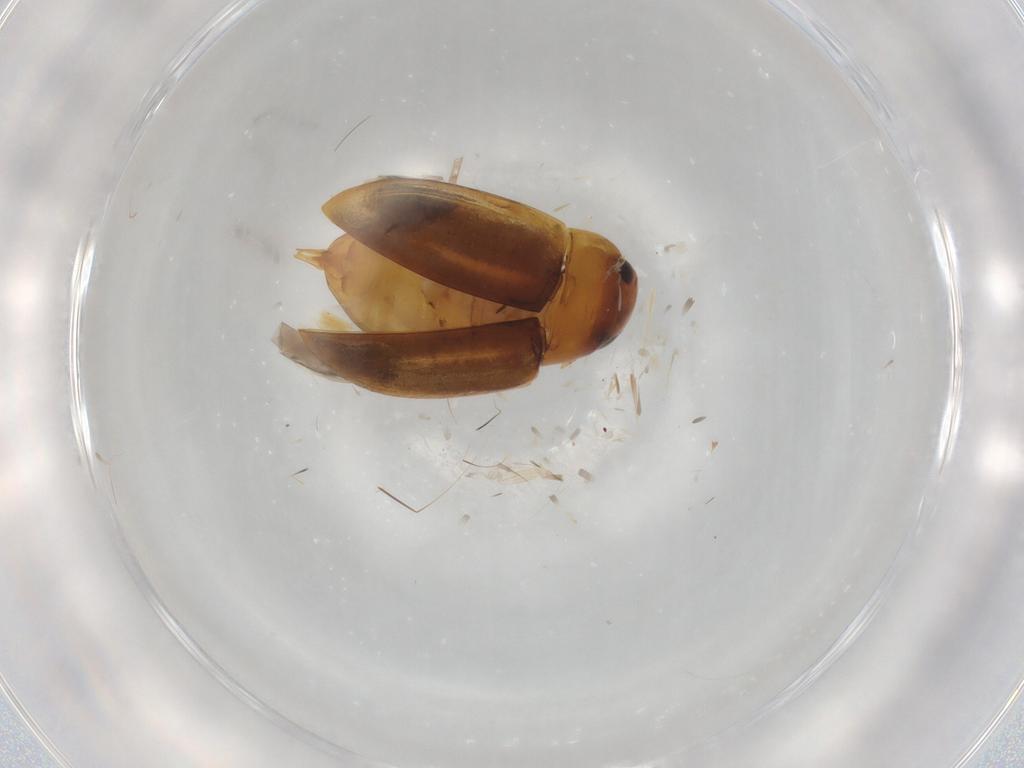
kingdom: Animalia
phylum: Arthropoda
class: Insecta
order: Coleoptera
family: Noteridae
